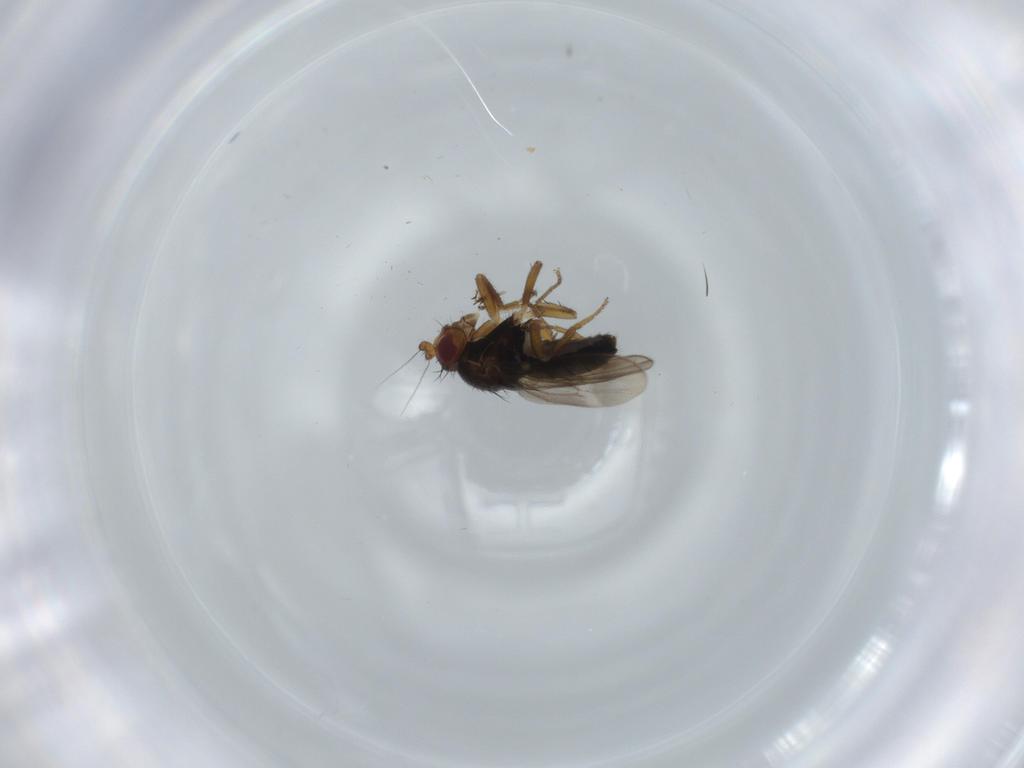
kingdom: Animalia
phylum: Arthropoda
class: Insecta
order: Diptera
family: Sphaeroceridae
